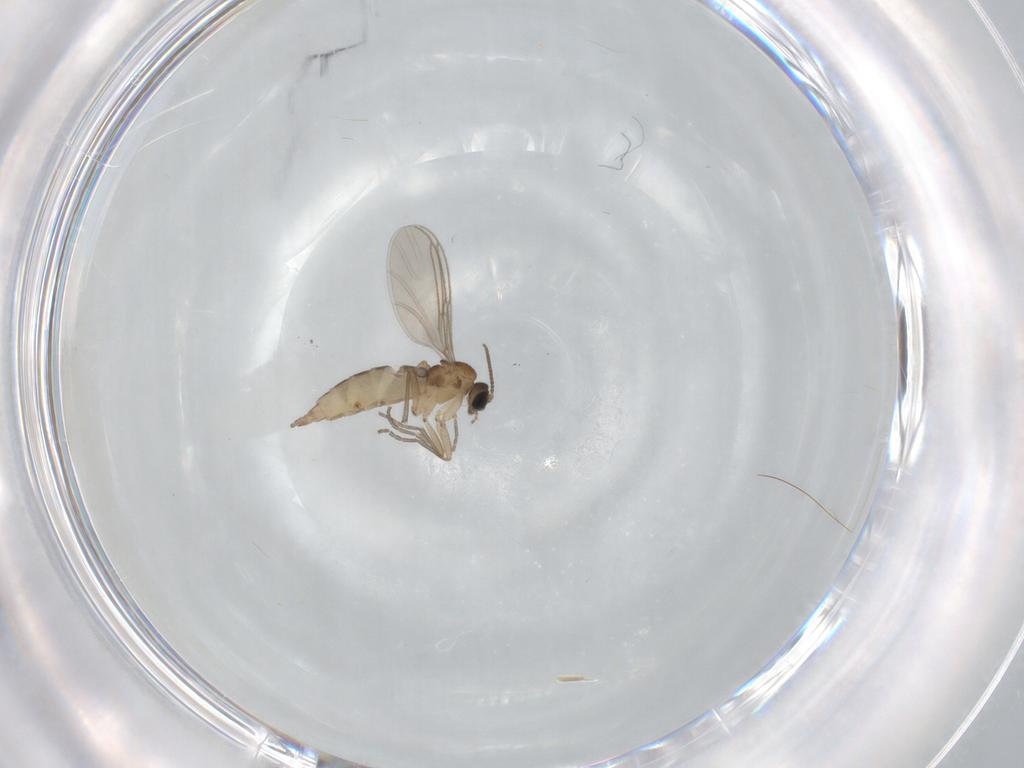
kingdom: Animalia
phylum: Arthropoda
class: Insecta
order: Diptera
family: Sciaridae
